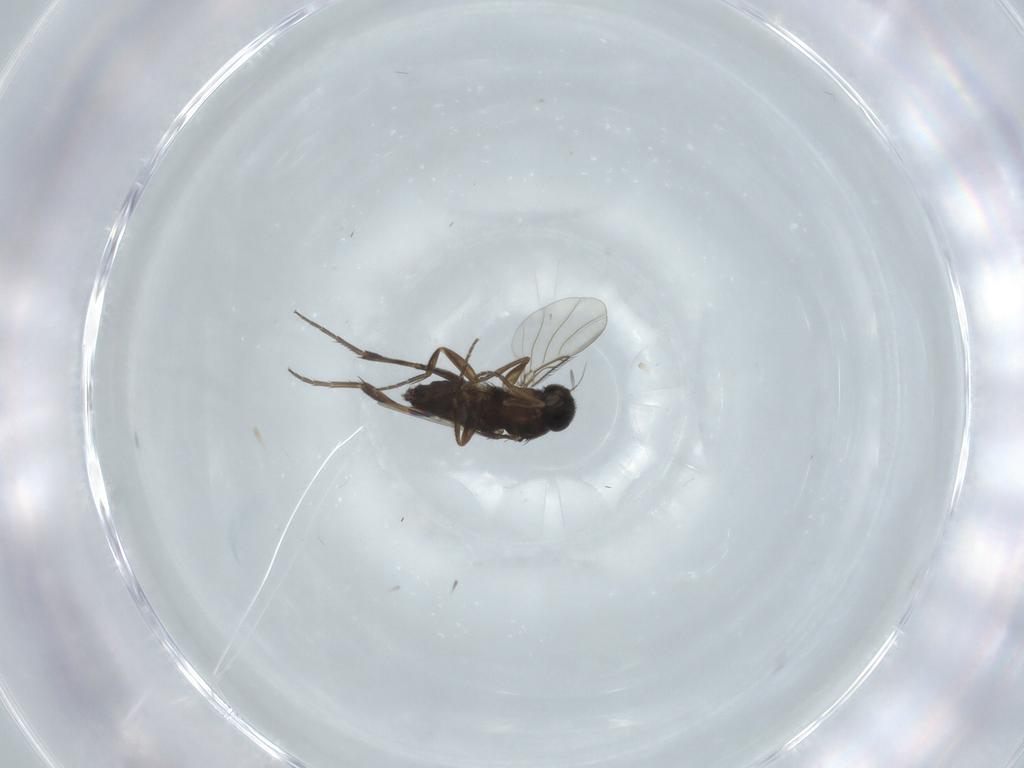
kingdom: Animalia
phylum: Arthropoda
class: Insecta
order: Diptera
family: Phoridae
